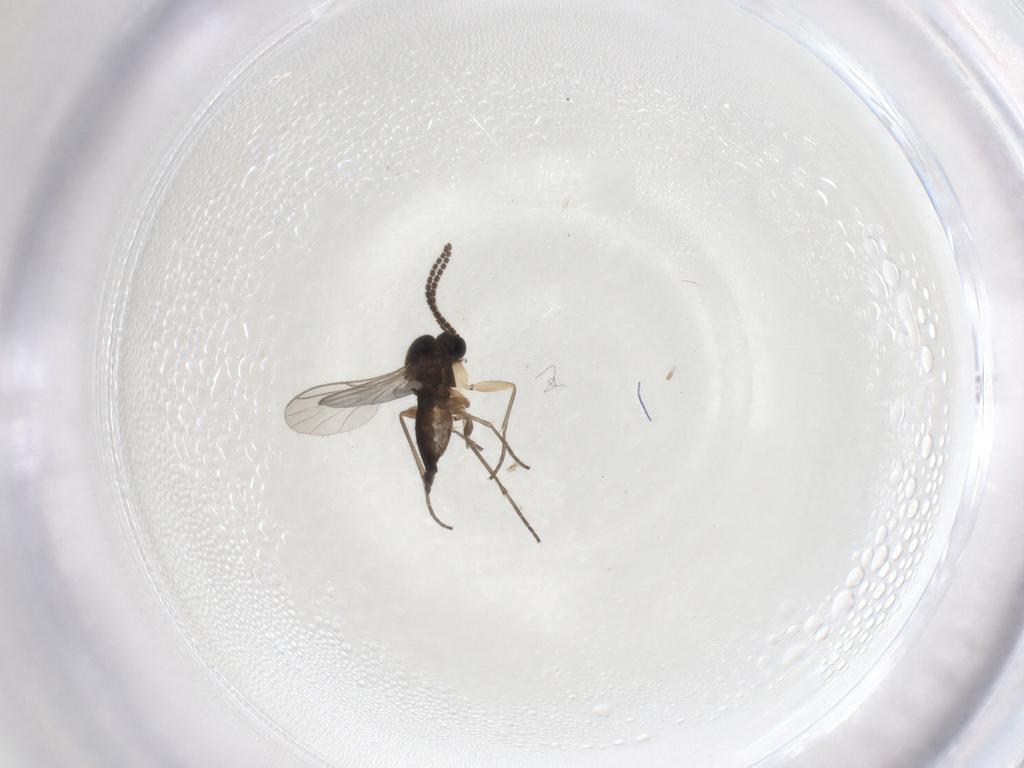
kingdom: Animalia
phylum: Arthropoda
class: Insecta
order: Diptera
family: Sciaridae
